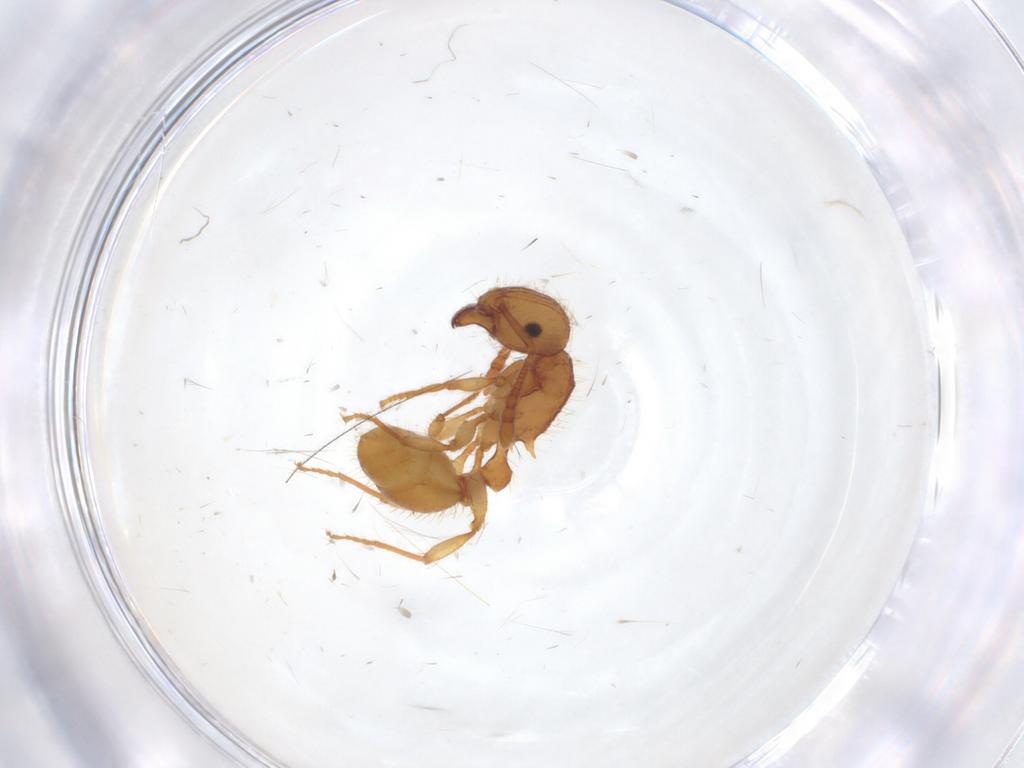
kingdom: Animalia
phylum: Arthropoda
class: Insecta
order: Hymenoptera
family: Formicidae
